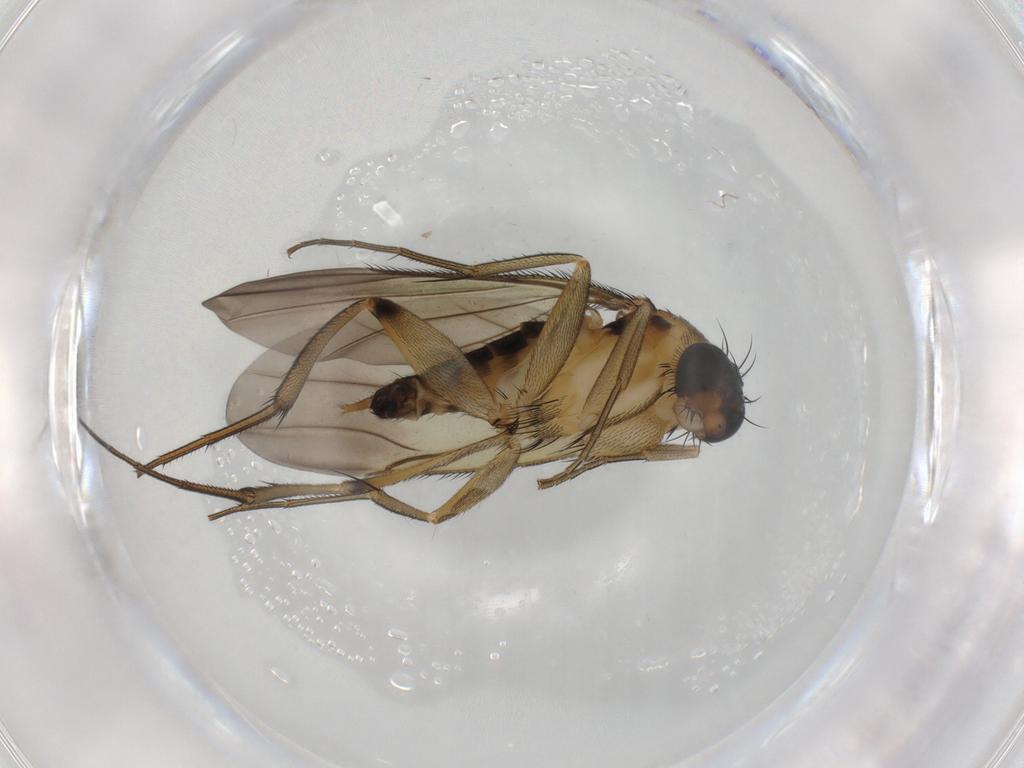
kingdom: Animalia
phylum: Arthropoda
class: Insecta
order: Diptera
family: Phoridae
